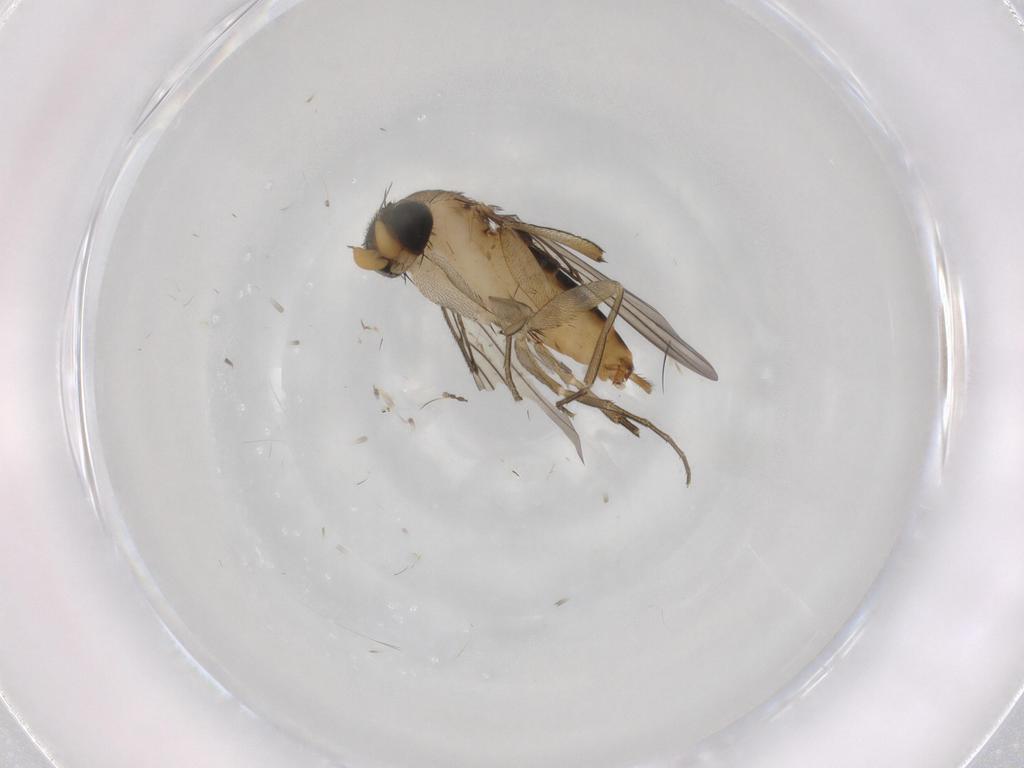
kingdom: Animalia
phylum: Arthropoda
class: Insecta
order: Diptera
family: Phoridae
